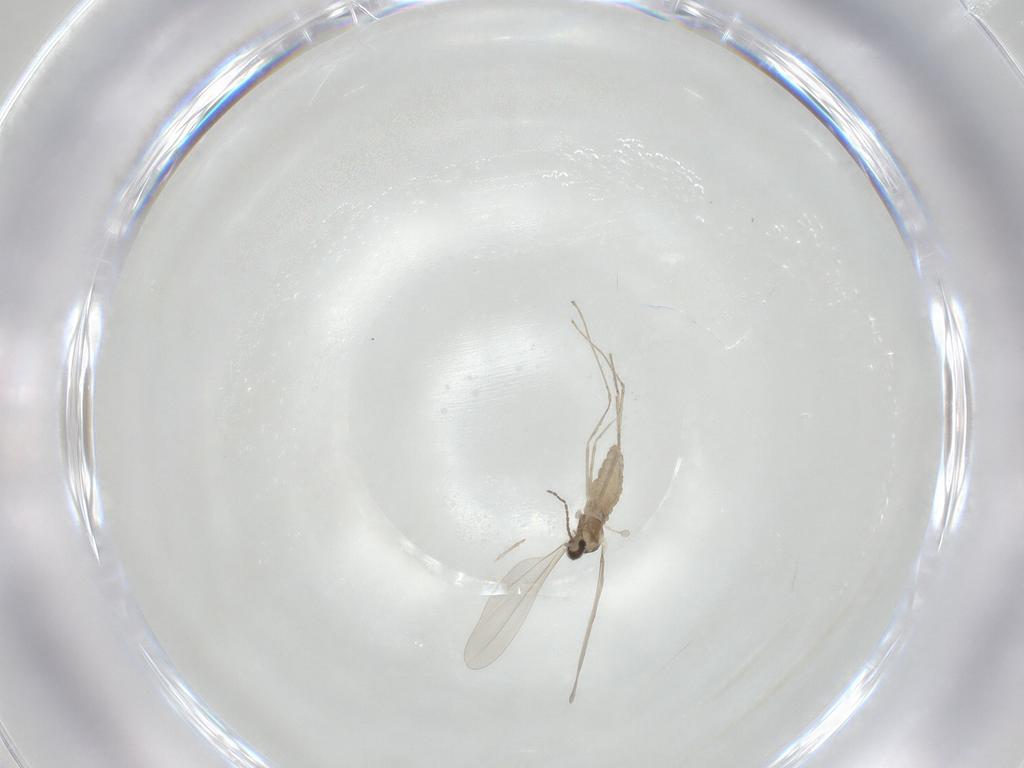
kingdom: Animalia
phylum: Arthropoda
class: Insecta
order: Diptera
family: Cecidomyiidae
